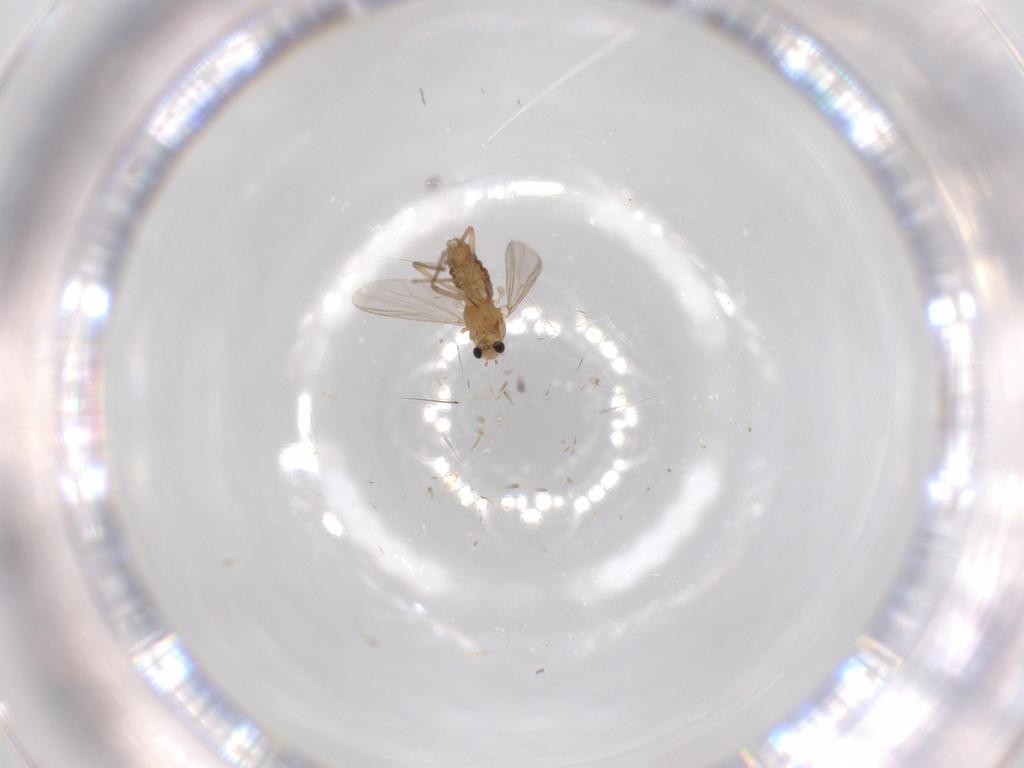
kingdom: Animalia
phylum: Arthropoda
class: Insecta
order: Diptera
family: Chironomidae
